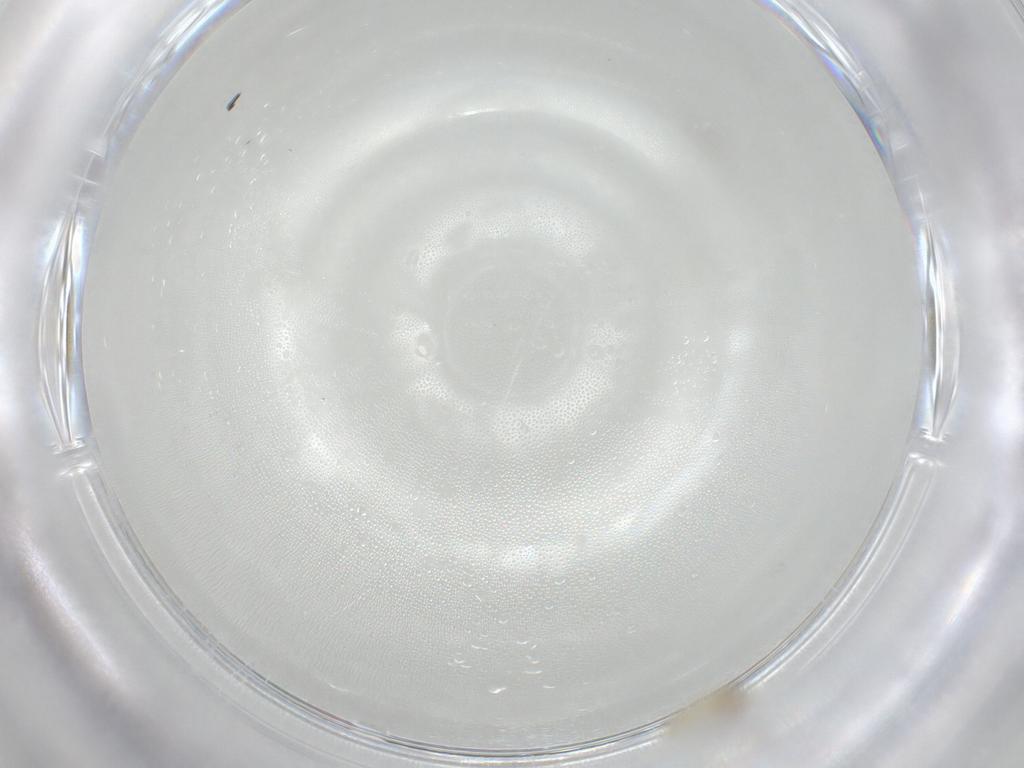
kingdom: Animalia
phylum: Arthropoda
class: Collembola
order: Entomobryomorpha
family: Entomobryidae
